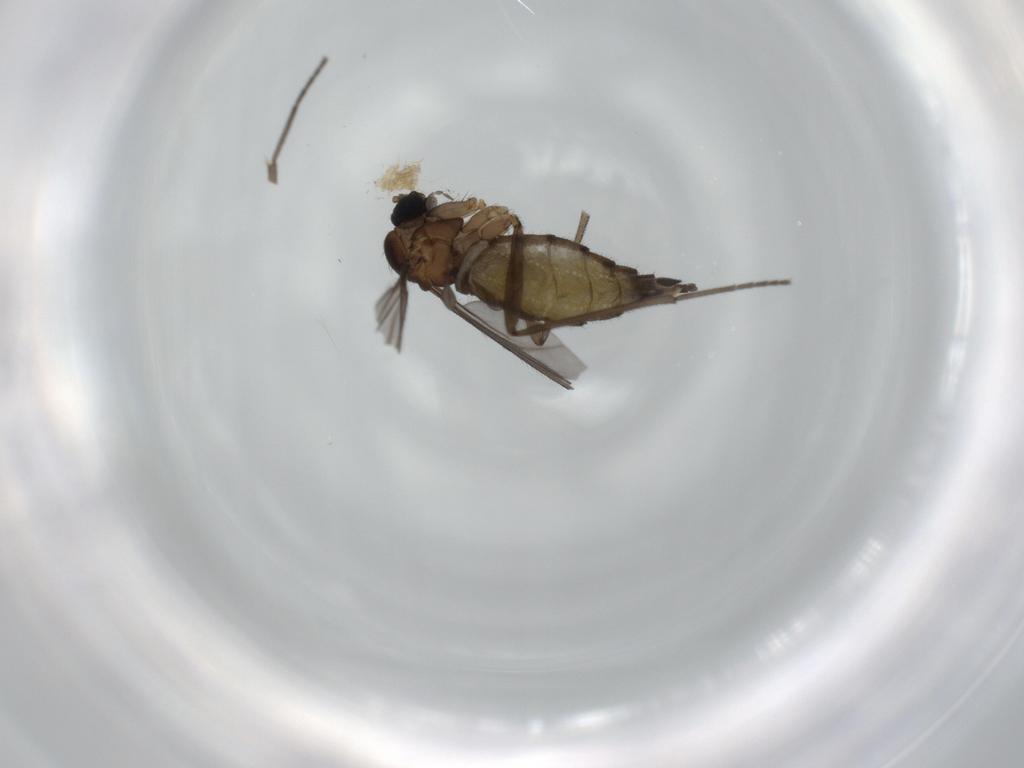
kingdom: Animalia
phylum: Arthropoda
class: Insecta
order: Diptera
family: Sciaridae
